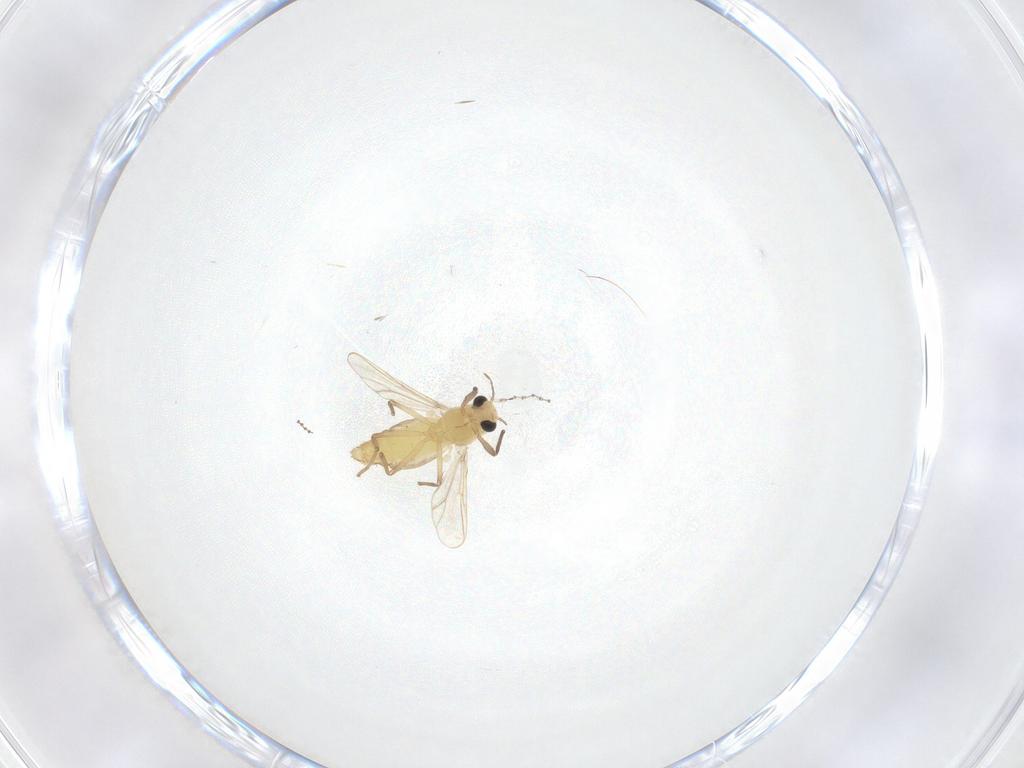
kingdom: Animalia
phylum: Arthropoda
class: Insecta
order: Diptera
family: Chironomidae
